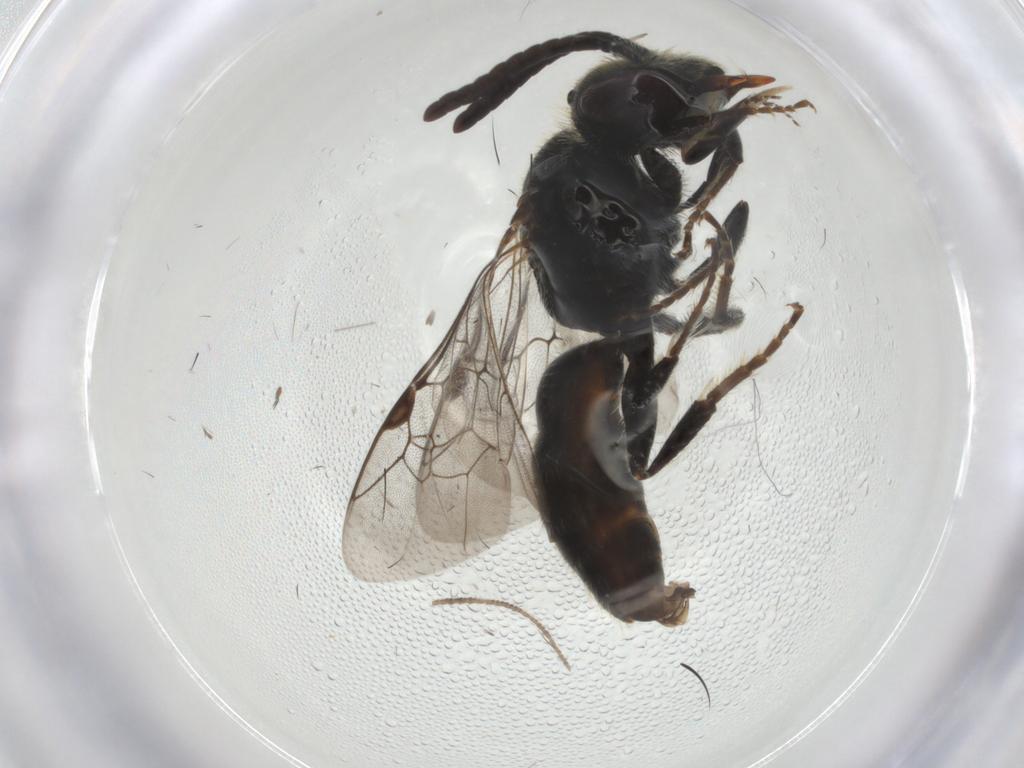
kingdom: Animalia
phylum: Arthropoda
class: Insecta
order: Hymenoptera
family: Halictidae
